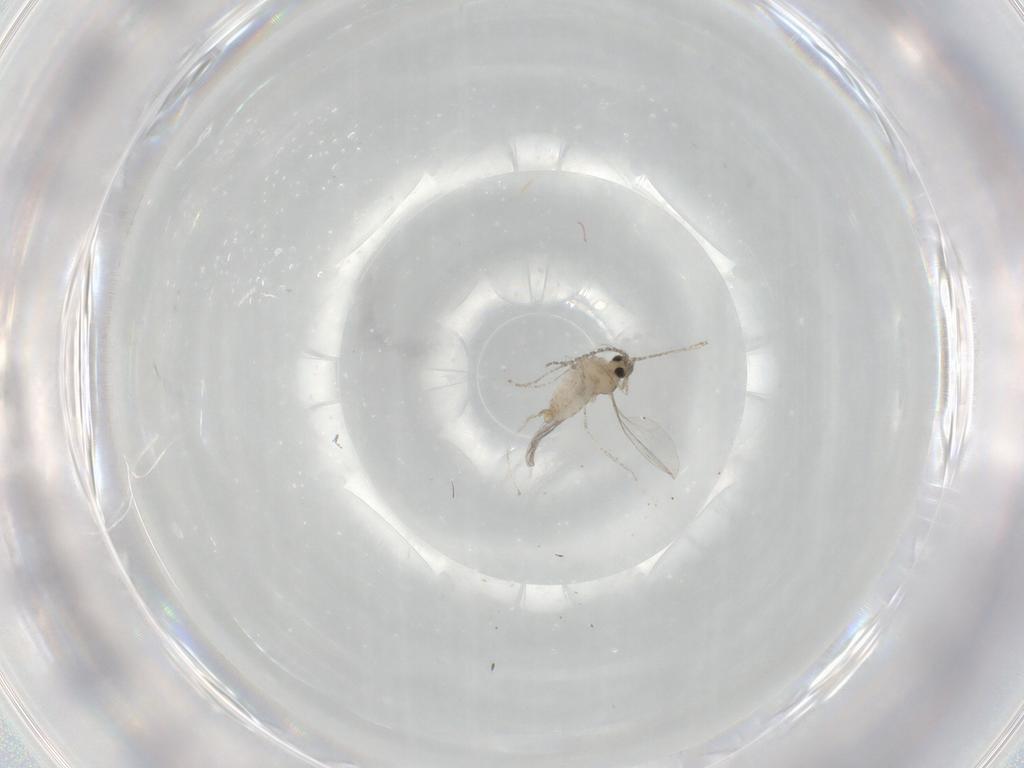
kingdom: Animalia
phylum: Arthropoda
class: Insecta
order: Diptera
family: Cecidomyiidae
